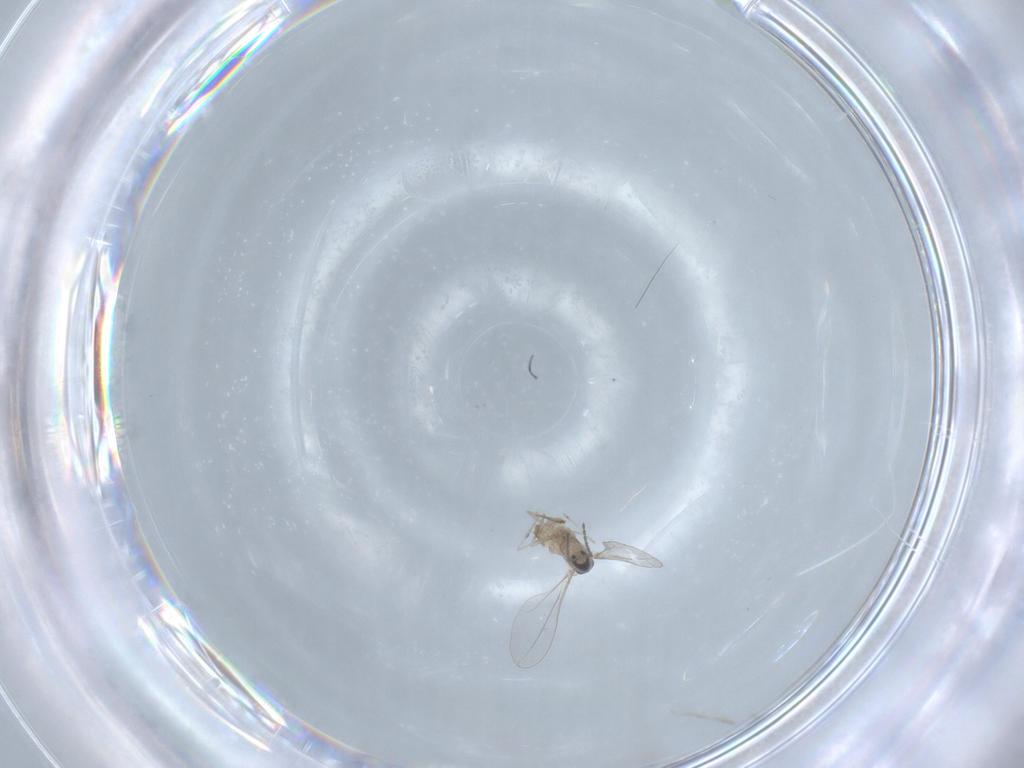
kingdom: Animalia
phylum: Arthropoda
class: Insecta
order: Diptera
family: Cecidomyiidae
